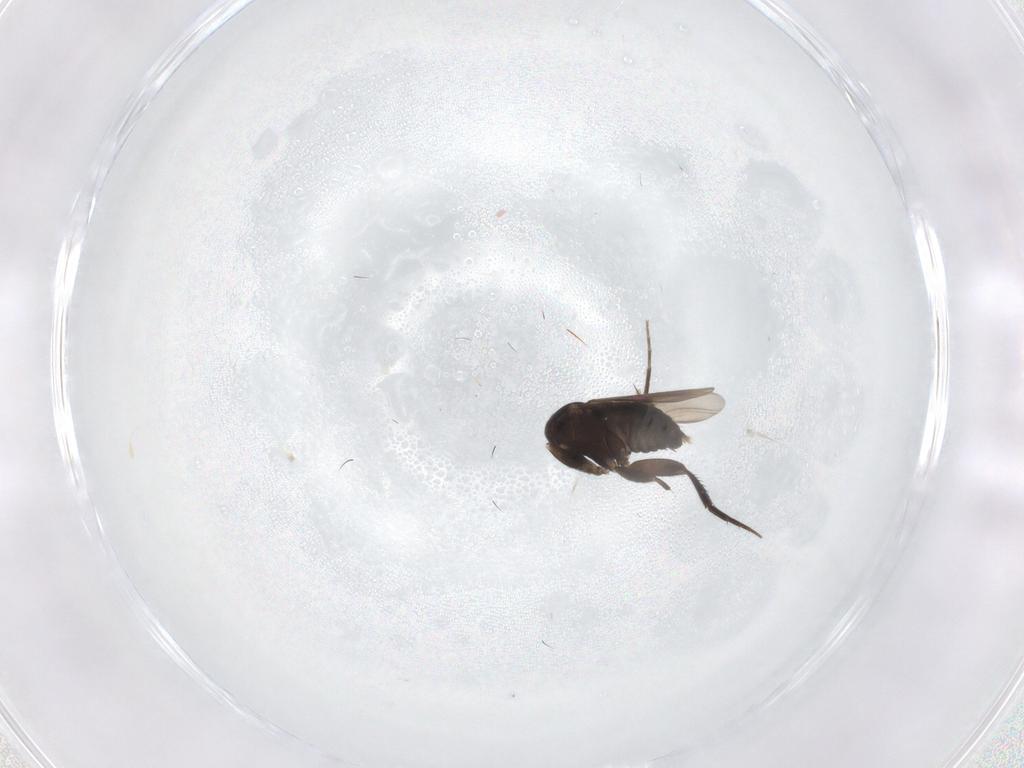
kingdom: Animalia
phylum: Arthropoda
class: Insecta
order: Diptera
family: Phoridae
